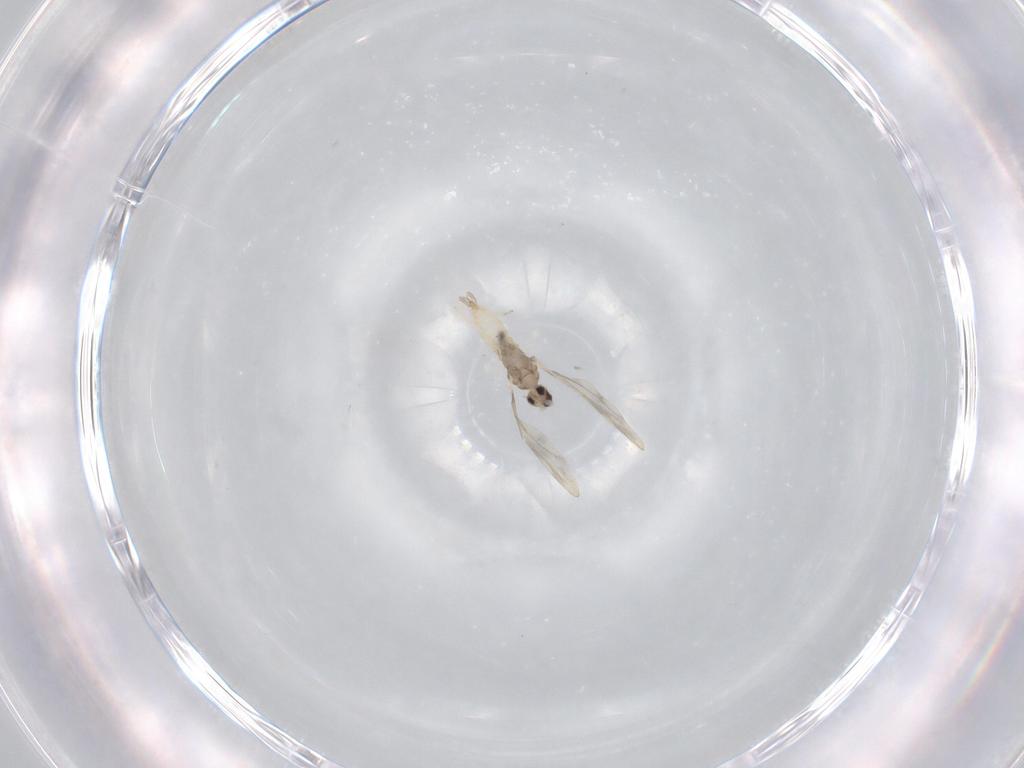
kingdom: Animalia
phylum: Arthropoda
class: Insecta
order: Diptera
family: Cecidomyiidae
